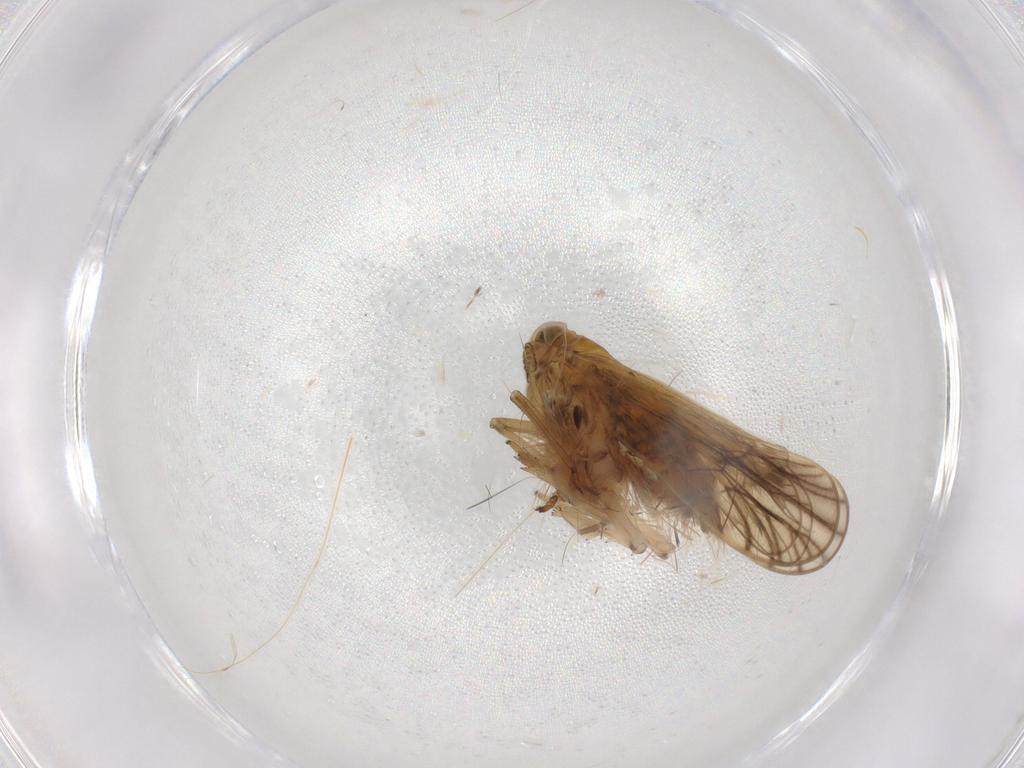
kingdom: Animalia
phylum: Arthropoda
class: Insecta
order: Hemiptera
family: Delphacidae
